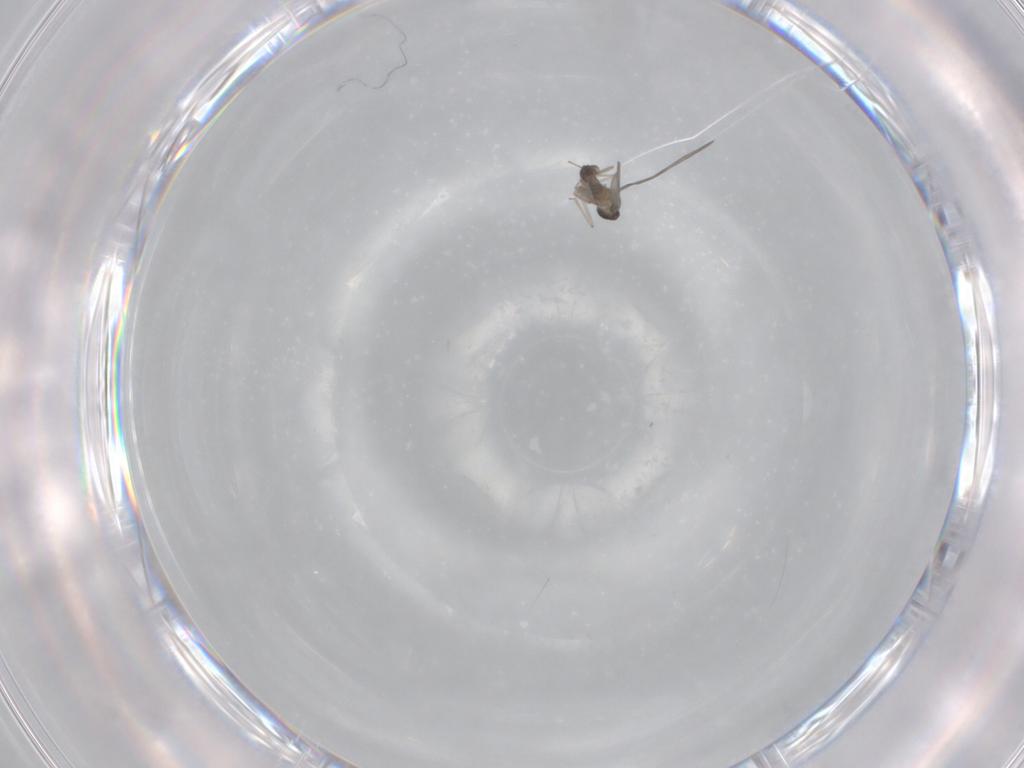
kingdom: Animalia
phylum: Arthropoda
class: Insecta
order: Diptera
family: Cecidomyiidae
